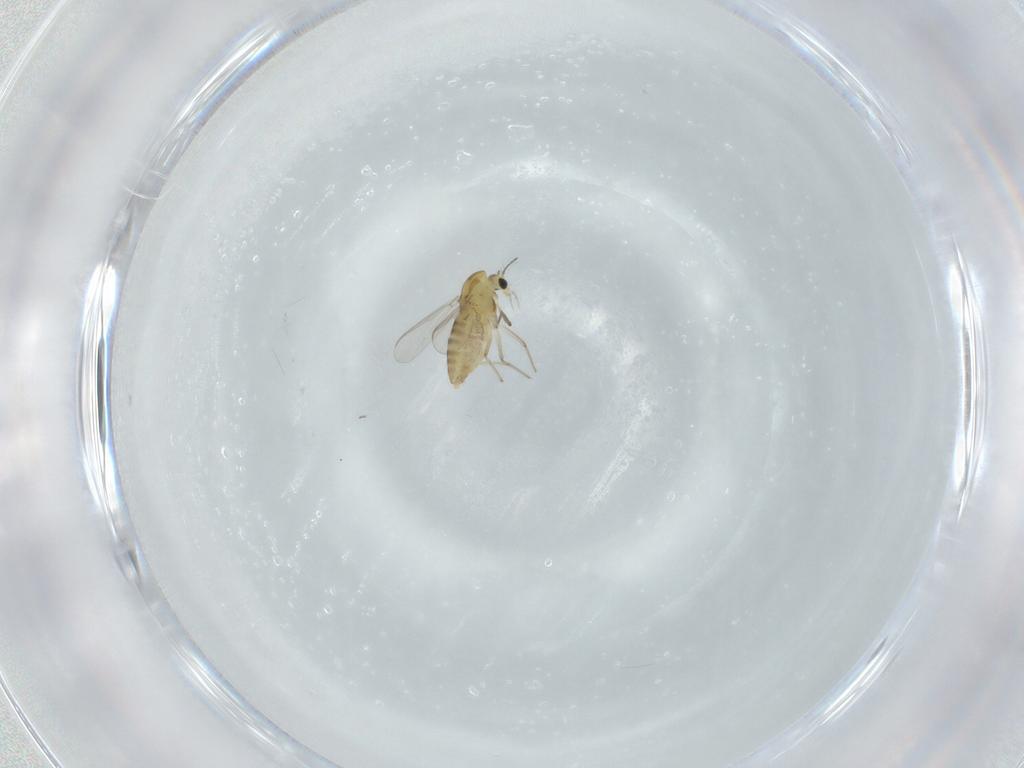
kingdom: Animalia
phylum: Arthropoda
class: Insecta
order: Diptera
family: Chironomidae
